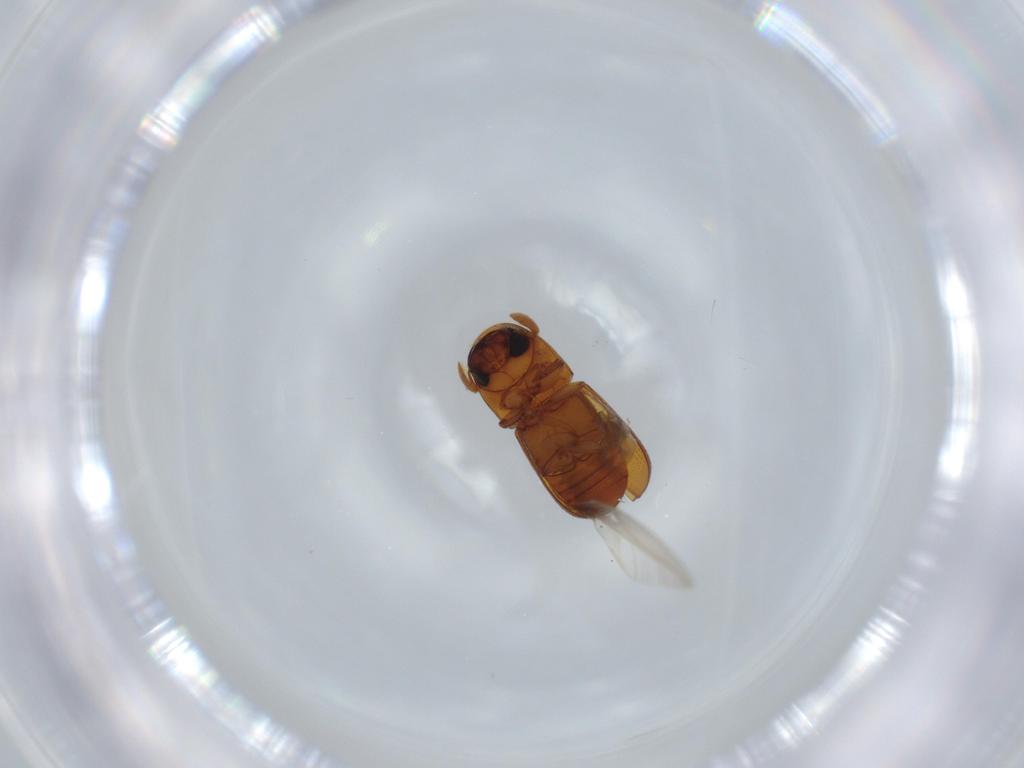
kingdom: Animalia
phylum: Arthropoda
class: Insecta
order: Coleoptera
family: Curculionidae
